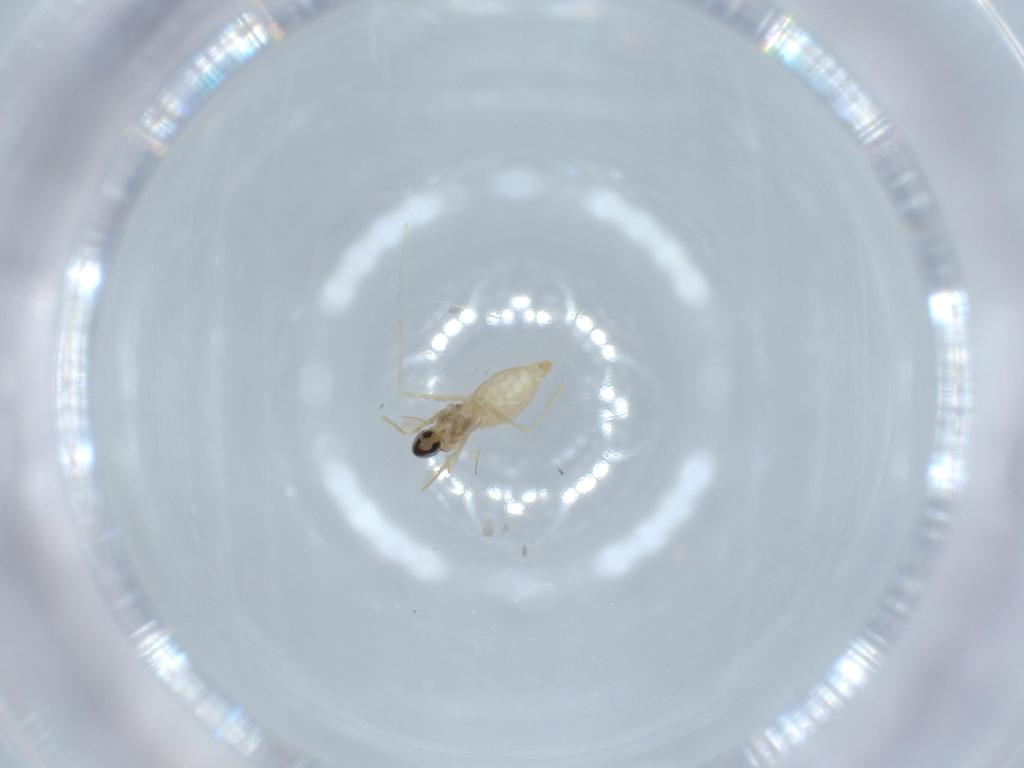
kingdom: Animalia
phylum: Arthropoda
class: Insecta
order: Diptera
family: Cecidomyiidae
